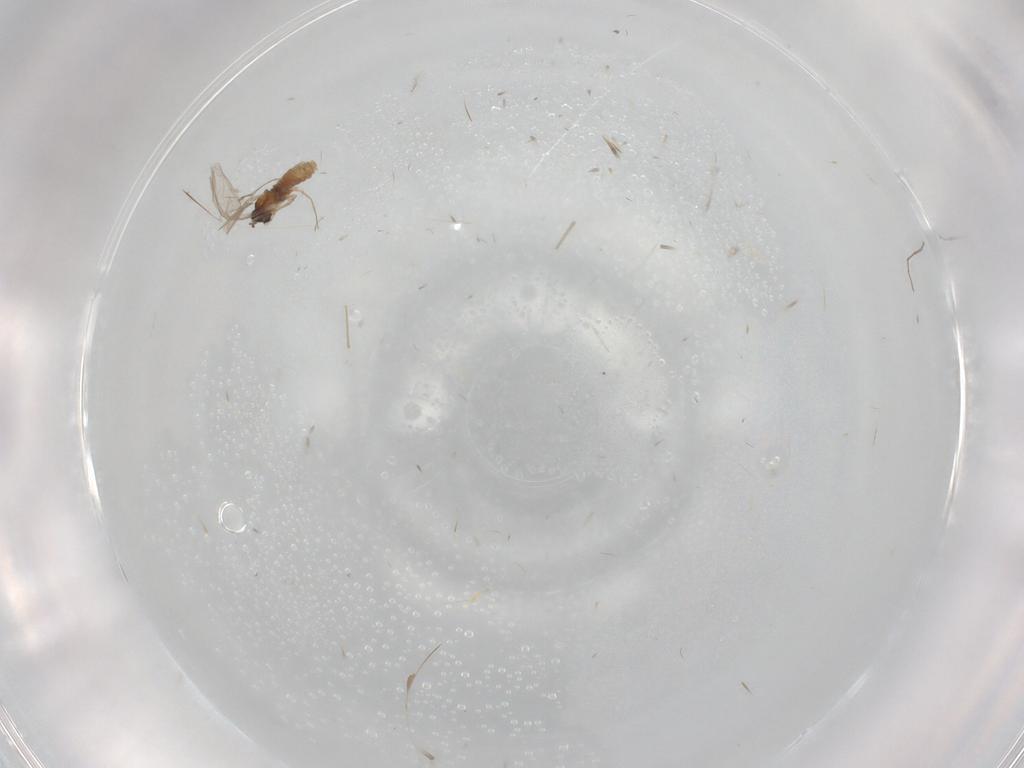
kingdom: Animalia
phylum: Arthropoda
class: Insecta
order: Diptera
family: Cecidomyiidae
